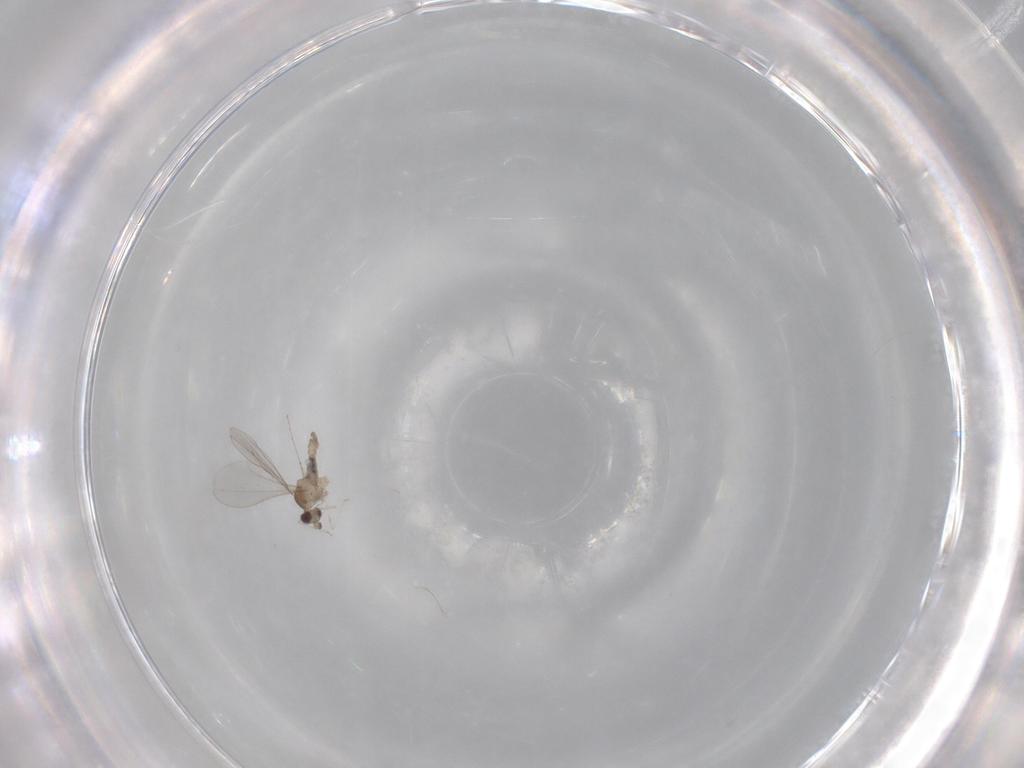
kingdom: Animalia
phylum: Arthropoda
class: Insecta
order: Diptera
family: Cecidomyiidae
